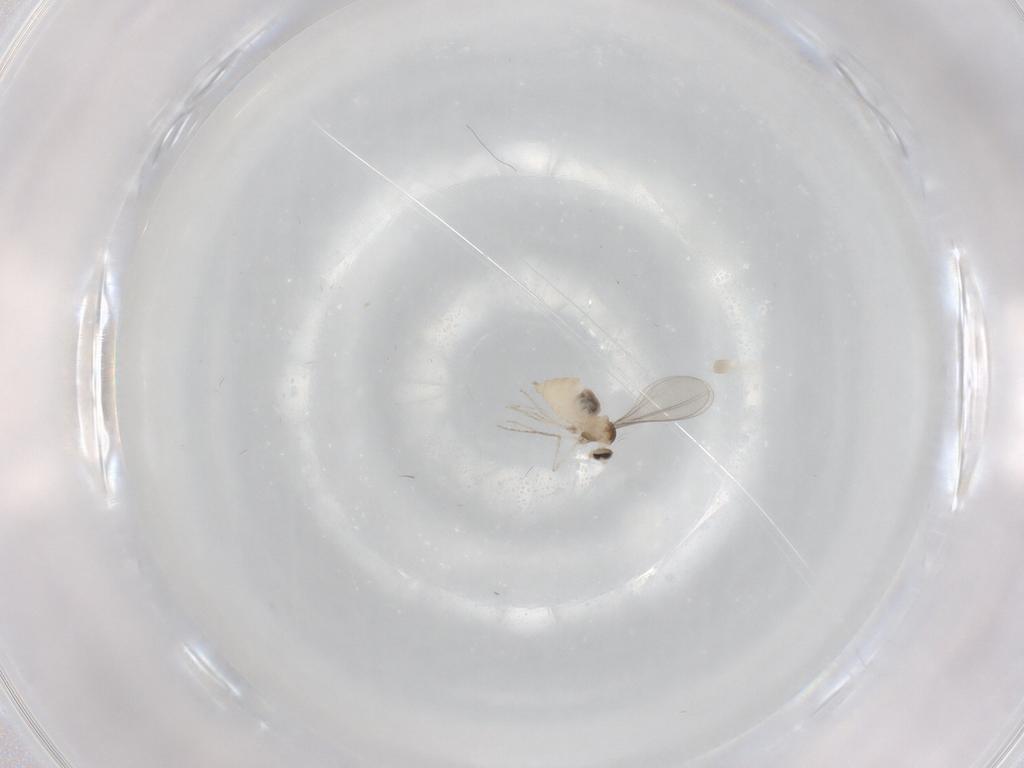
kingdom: Animalia
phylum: Arthropoda
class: Insecta
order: Diptera
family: Cecidomyiidae
